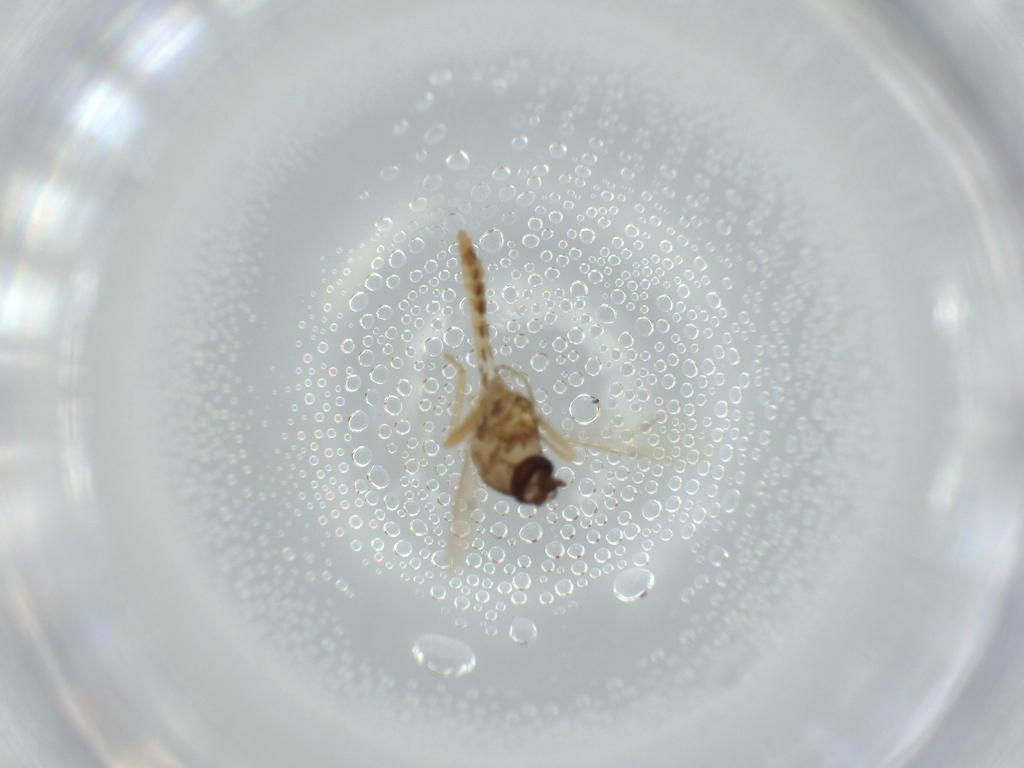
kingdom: Animalia
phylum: Arthropoda
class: Insecta
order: Diptera
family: Ceratopogonidae
